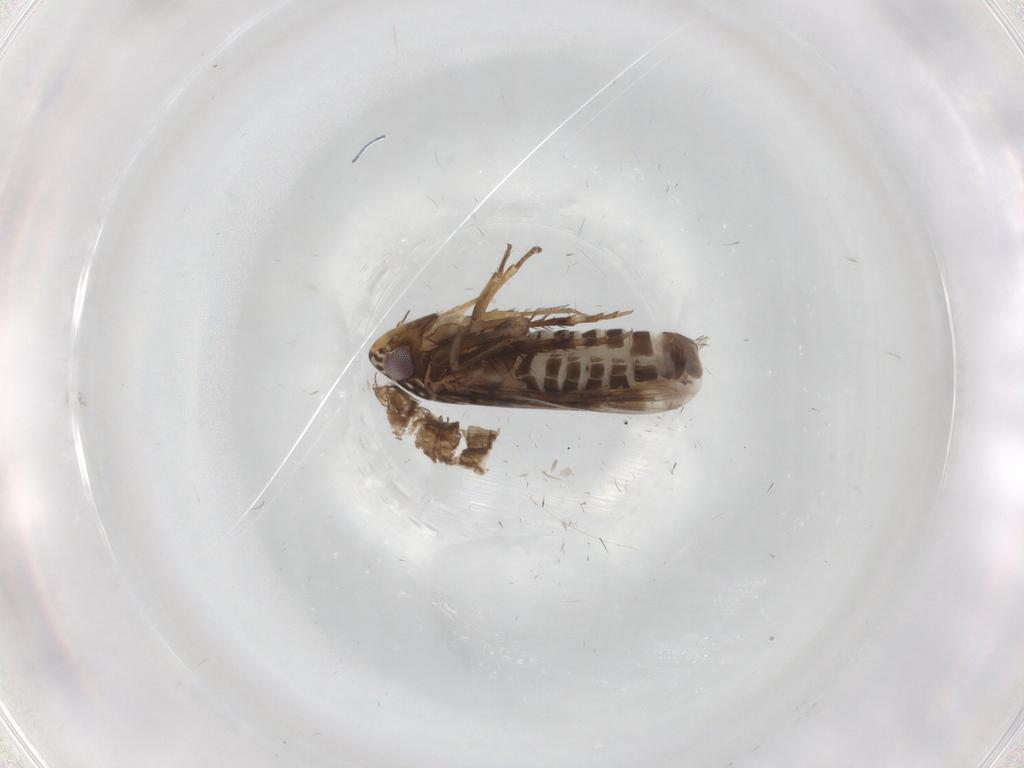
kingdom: Animalia
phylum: Arthropoda
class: Insecta
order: Hemiptera
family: Cicadellidae
